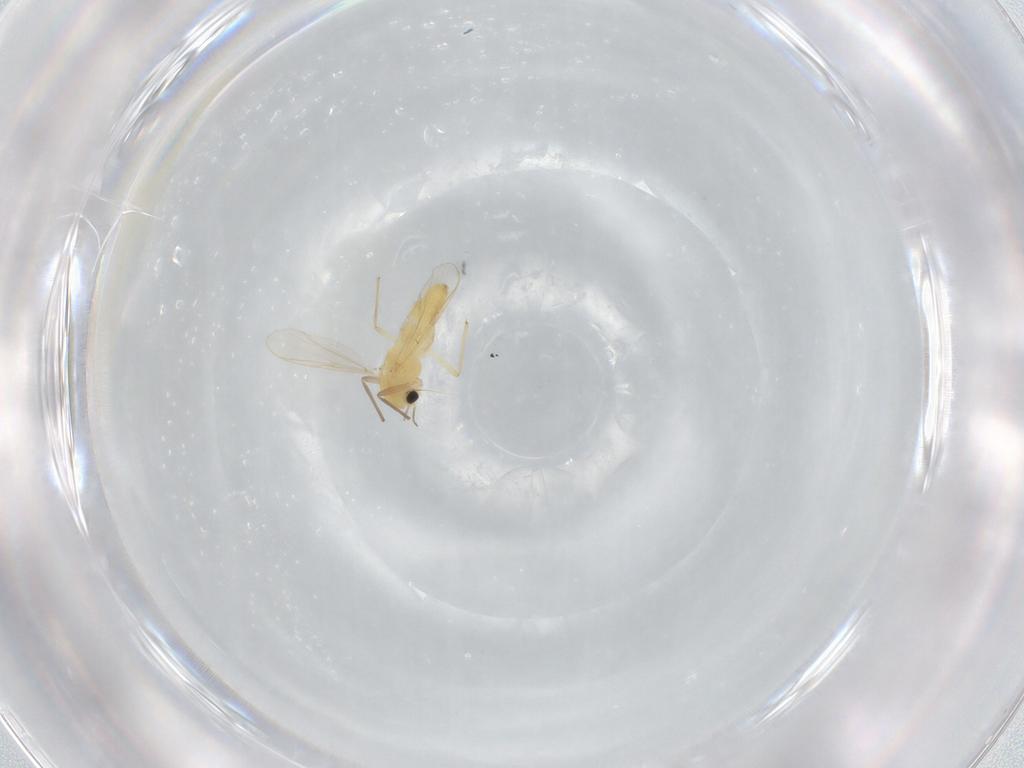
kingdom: Animalia
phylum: Arthropoda
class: Insecta
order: Diptera
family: Chironomidae
